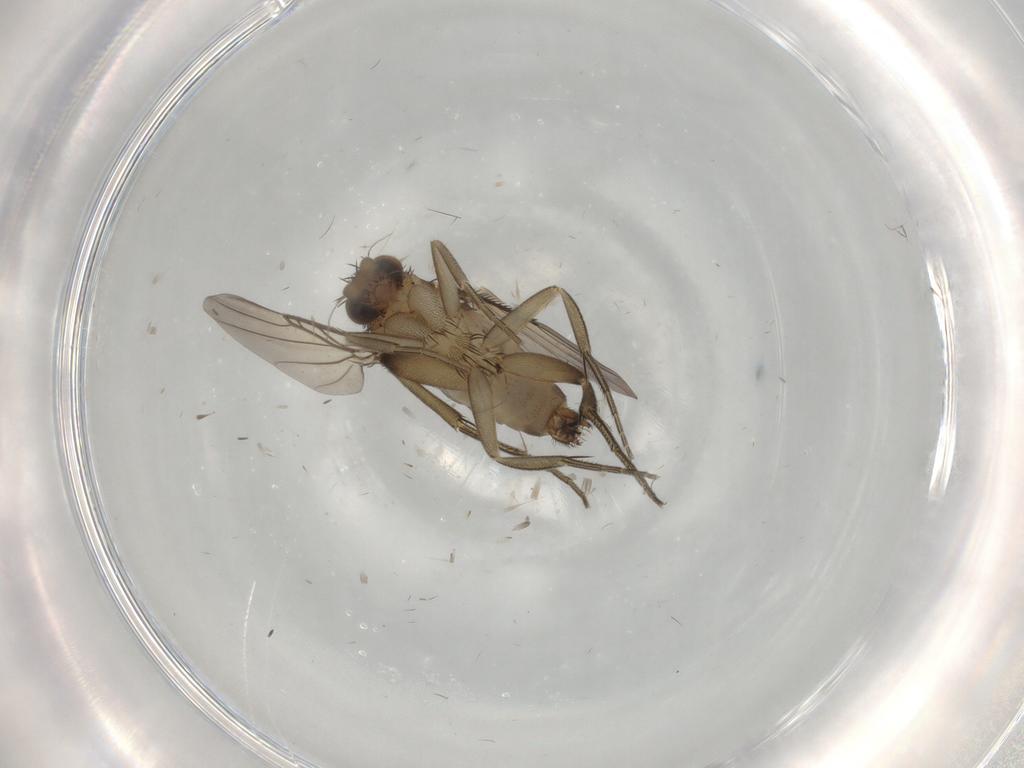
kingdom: Animalia
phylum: Arthropoda
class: Insecta
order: Diptera
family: Phoridae
